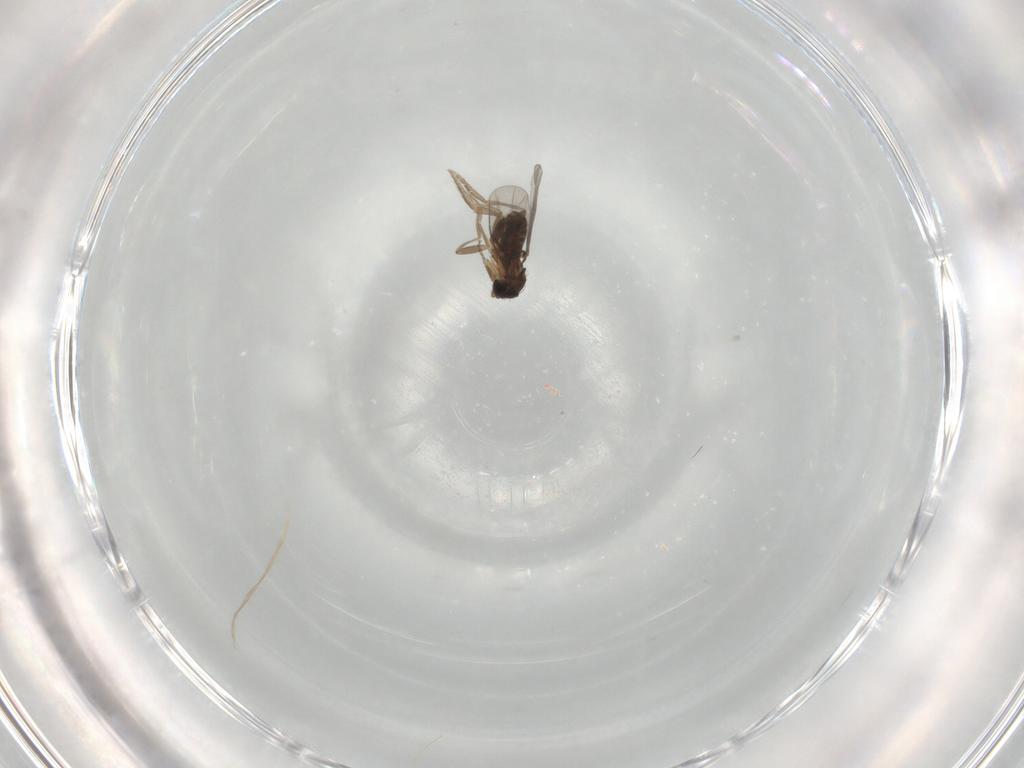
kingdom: Animalia
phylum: Arthropoda
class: Insecta
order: Diptera
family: Drosophilidae
